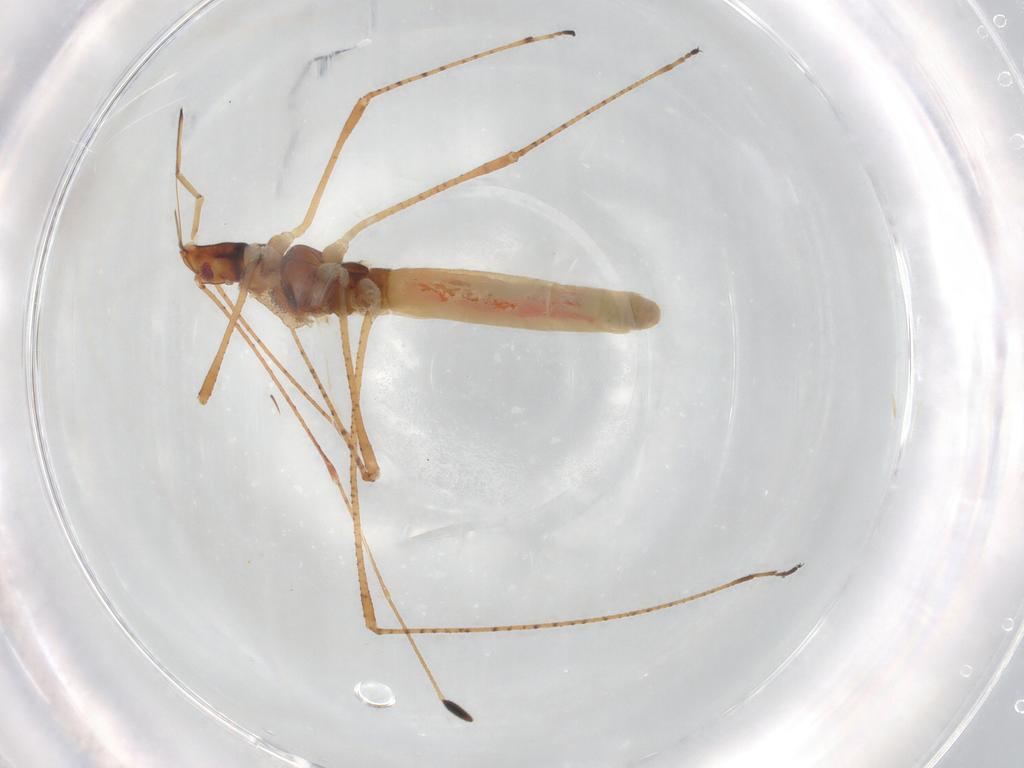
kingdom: Animalia
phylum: Arthropoda
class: Insecta
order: Hemiptera
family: Cymidae
